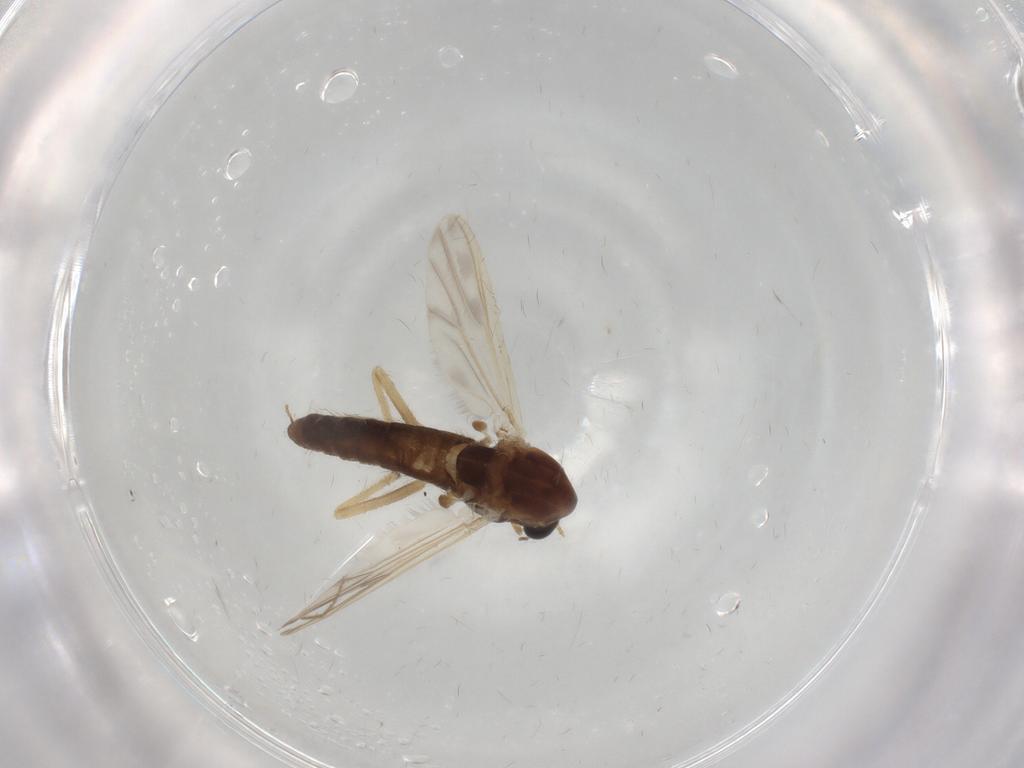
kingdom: Animalia
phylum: Arthropoda
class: Insecta
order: Diptera
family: Chironomidae
